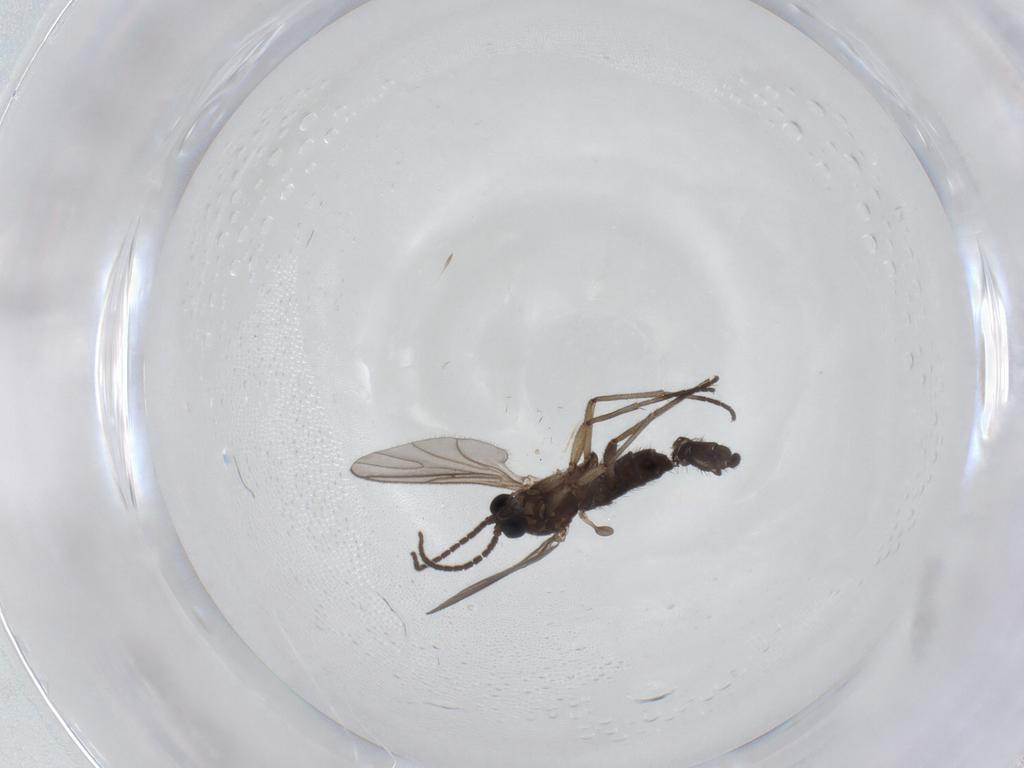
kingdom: Animalia
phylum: Arthropoda
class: Insecta
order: Diptera
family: Sciaridae
